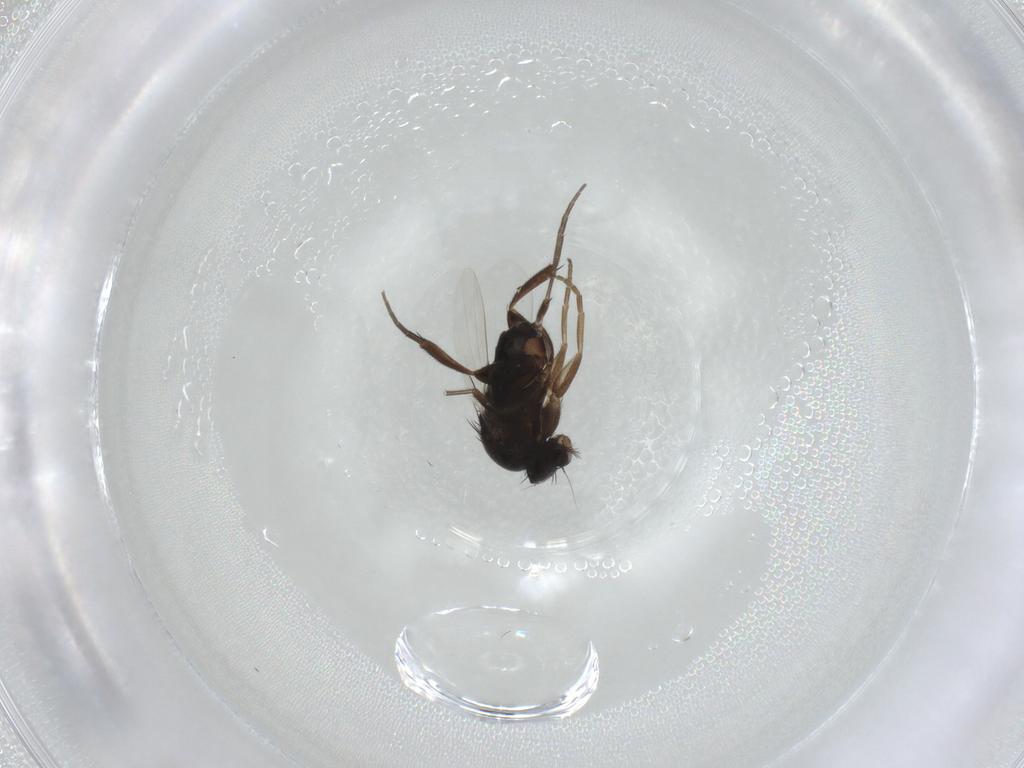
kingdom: Animalia
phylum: Arthropoda
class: Insecta
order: Diptera
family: Phoridae
